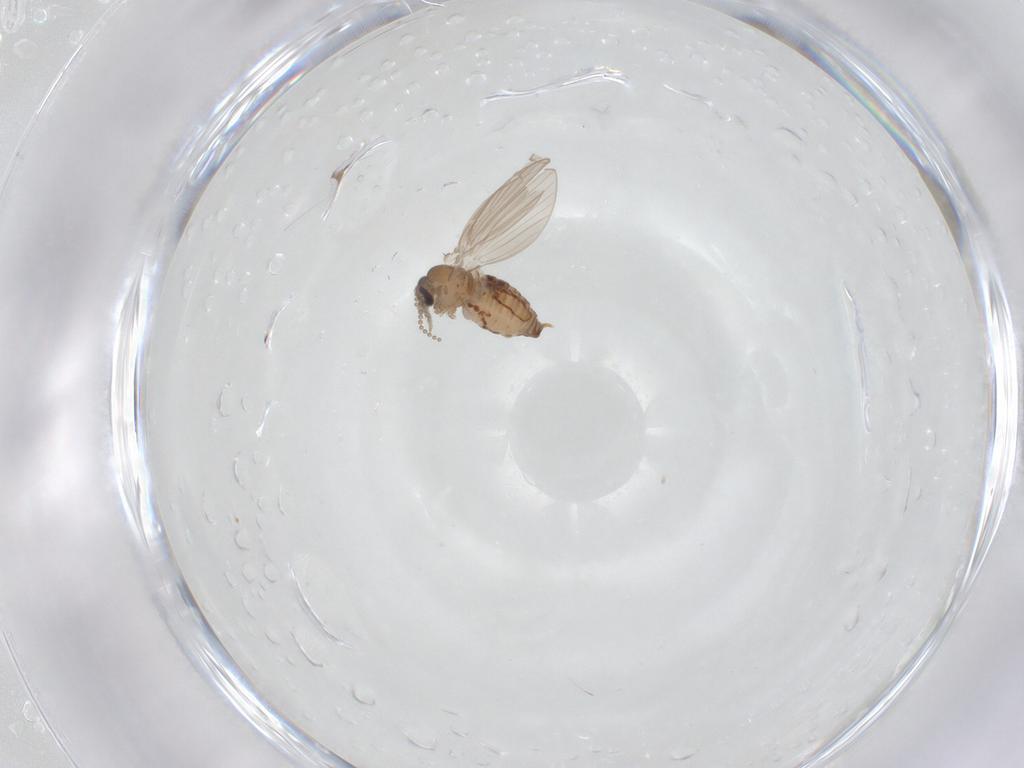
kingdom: Animalia
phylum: Arthropoda
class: Insecta
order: Diptera
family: Psychodidae
